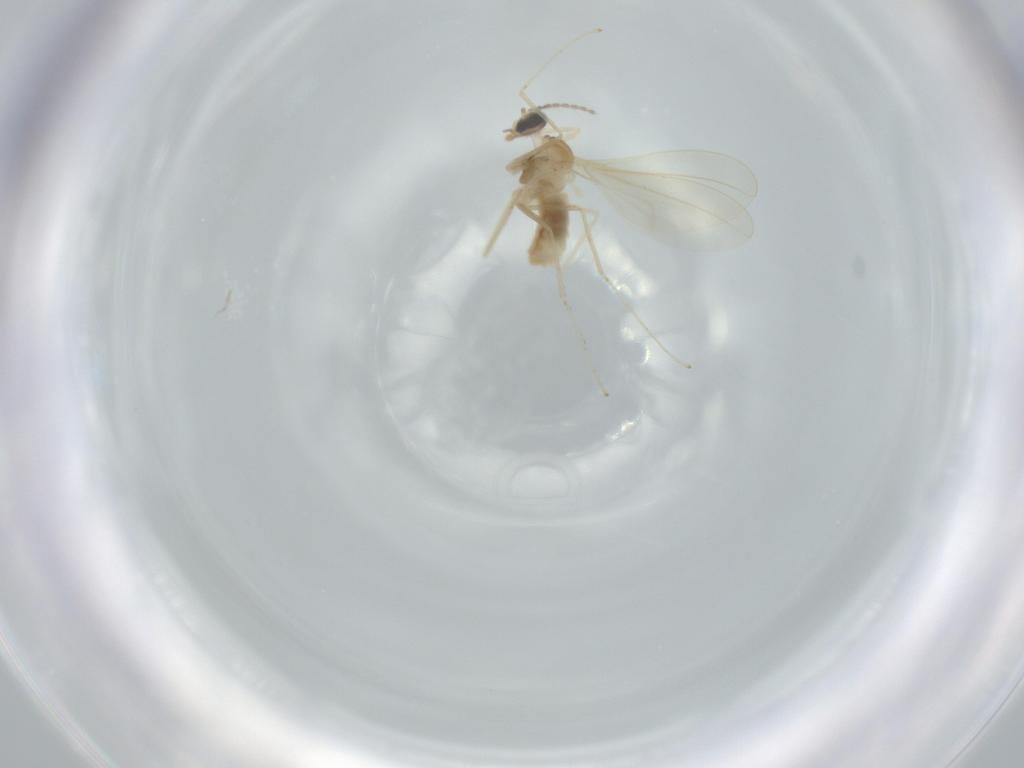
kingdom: Animalia
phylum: Arthropoda
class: Insecta
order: Diptera
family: Cecidomyiidae
